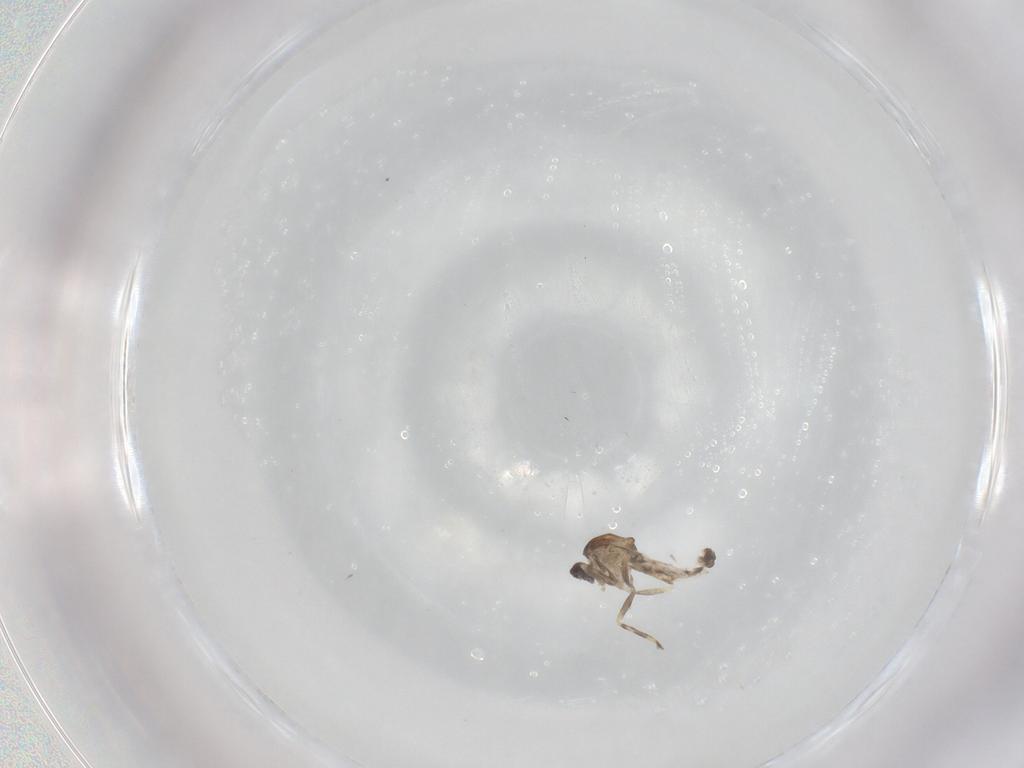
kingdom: Animalia
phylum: Arthropoda
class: Insecta
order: Diptera
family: Ceratopogonidae
